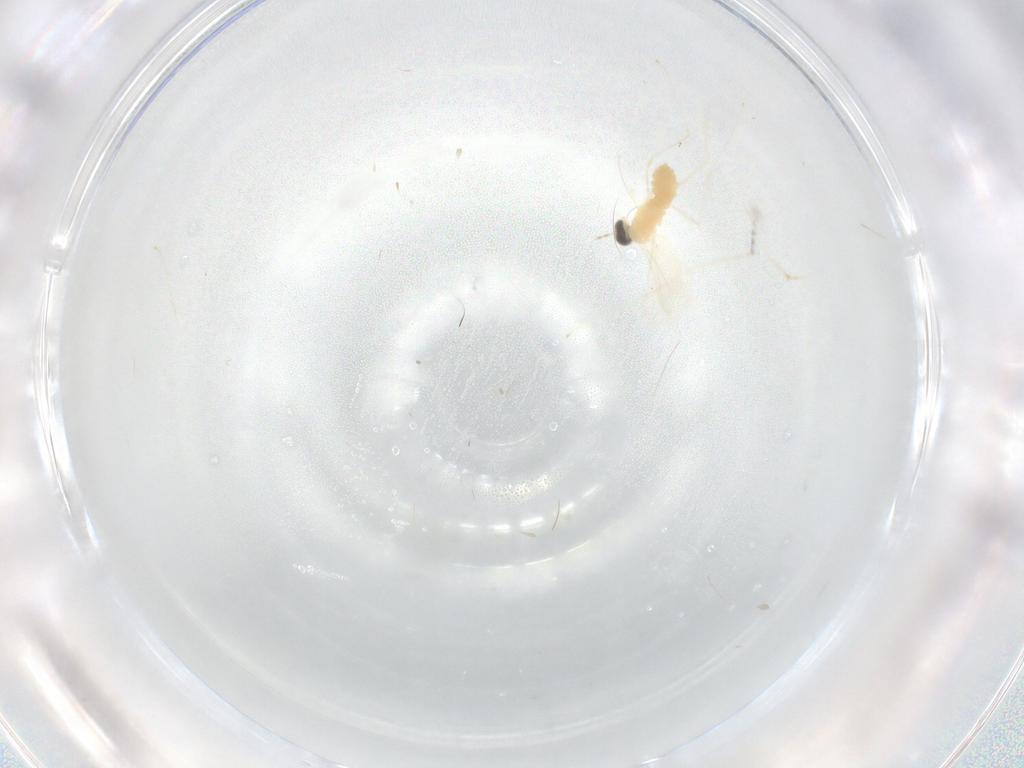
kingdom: Animalia
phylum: Arthropoda
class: Insecta
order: Diptera
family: Cecidomyiidae
